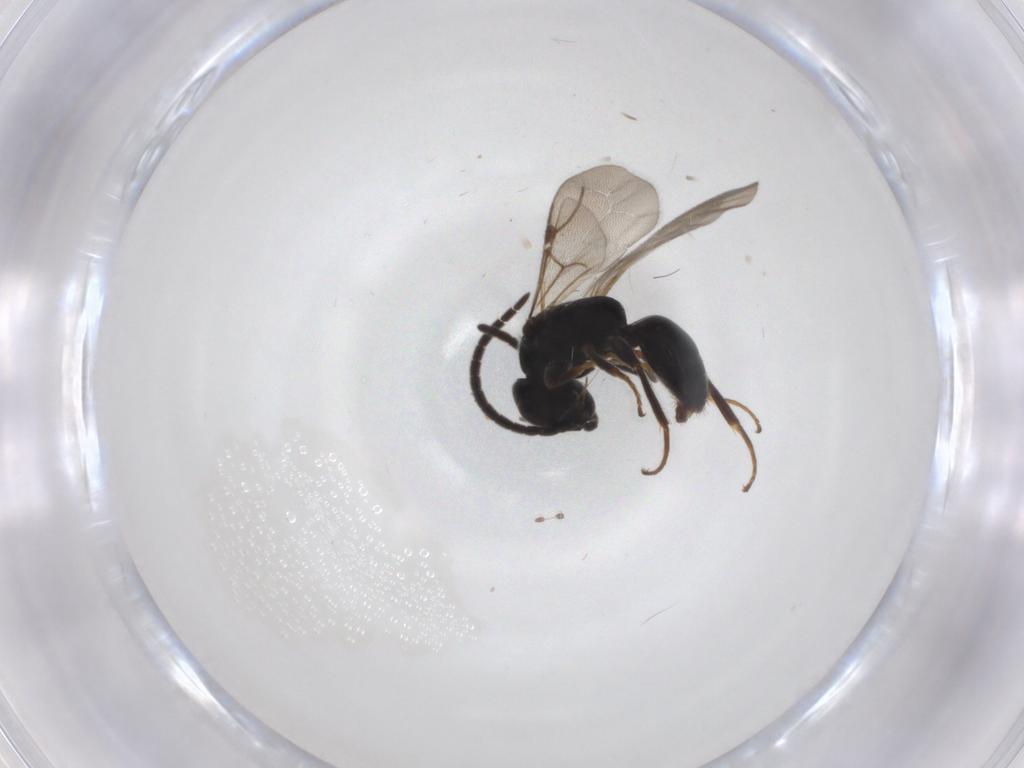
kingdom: Animalia
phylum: Arthropoda
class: Insecta
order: Hymenoptera
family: Bethylidae
